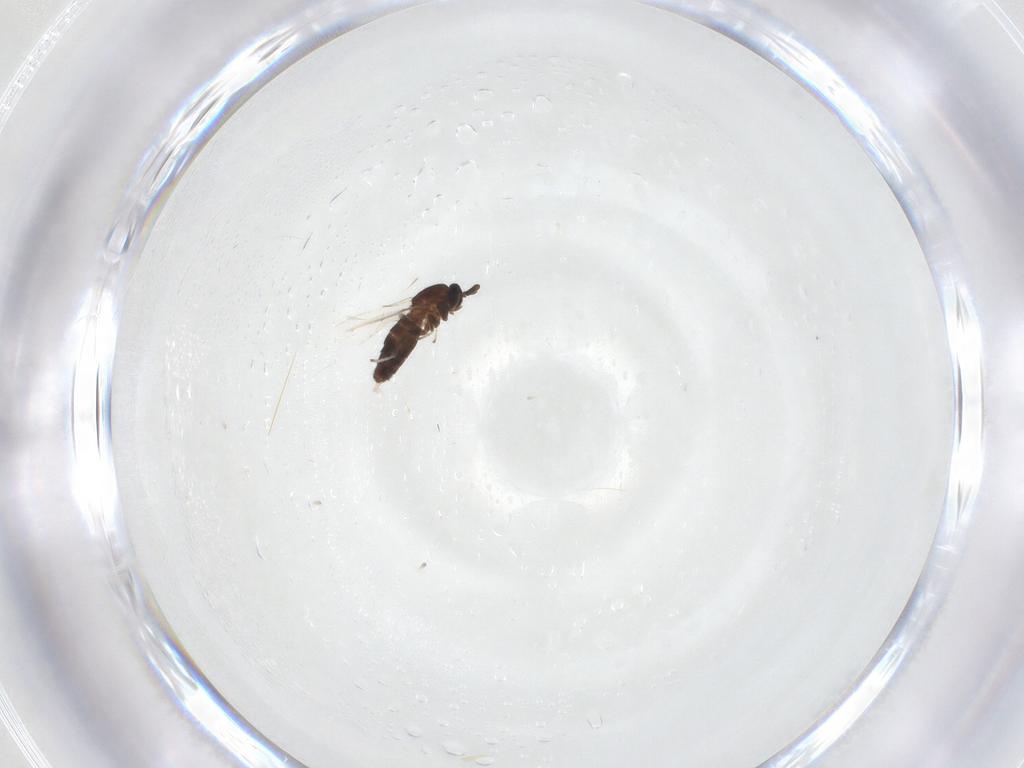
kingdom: Animalia
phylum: Arthropoda
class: Insecta
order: Diptera
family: Scatopsidae
